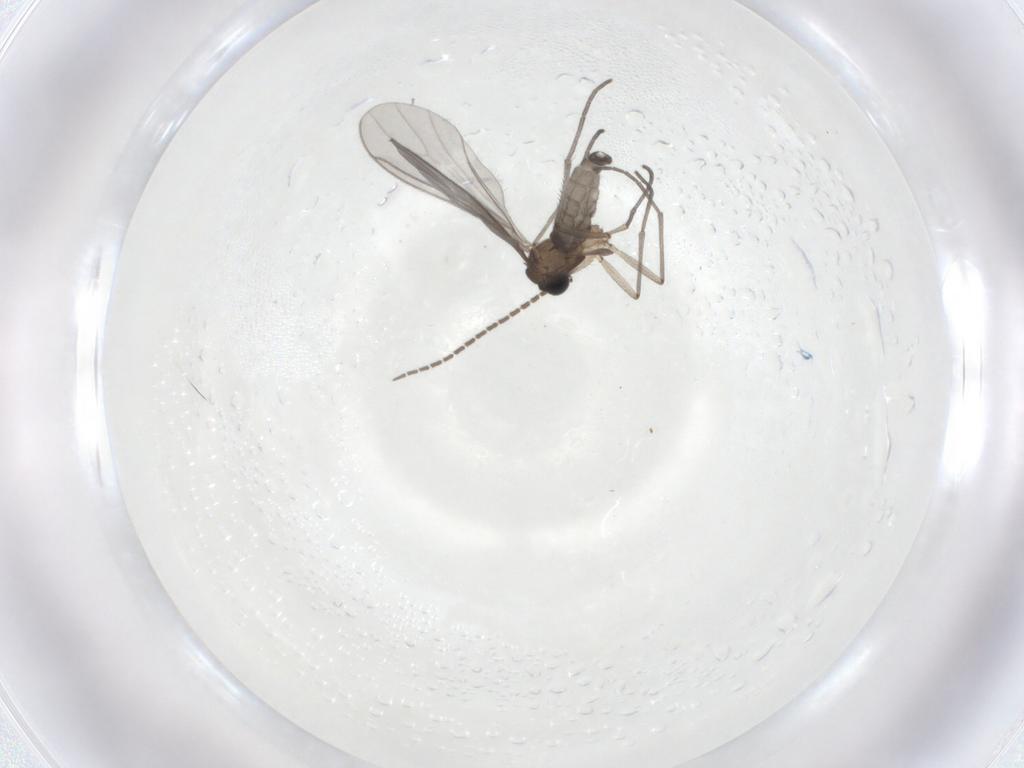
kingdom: Animalia
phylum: Arthropoda
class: Insecta
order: Diptera
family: Sciaridae
